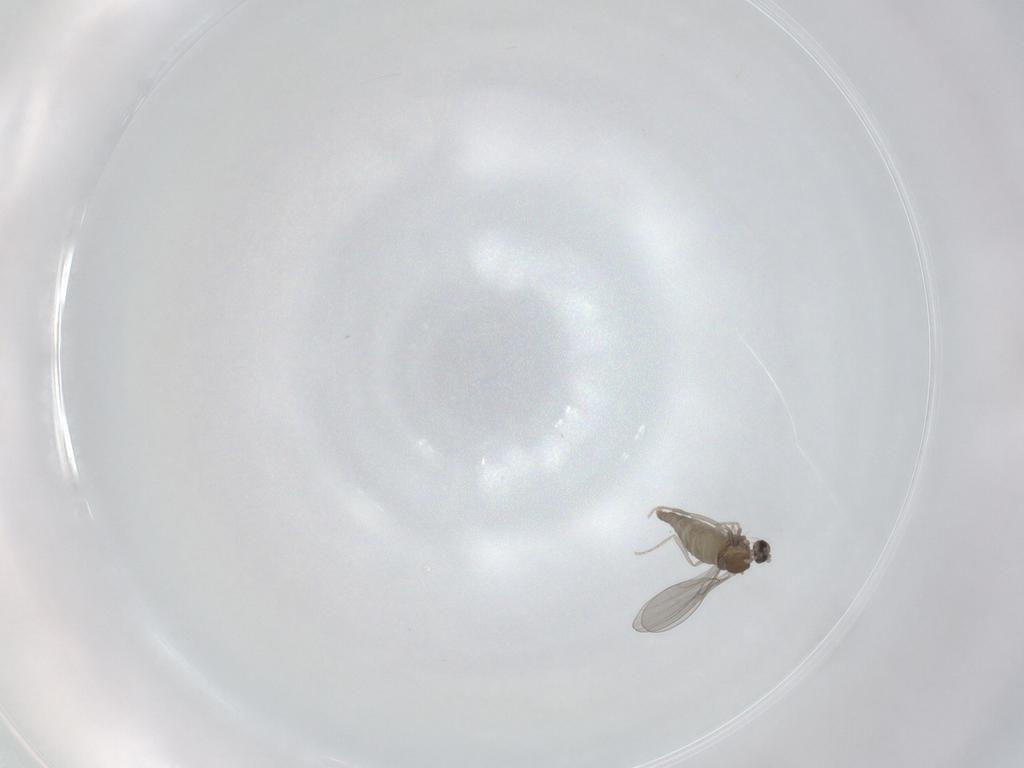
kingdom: Animalia
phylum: Arthropoda
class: Insecta
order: Diptera
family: Cecidomyiidae
